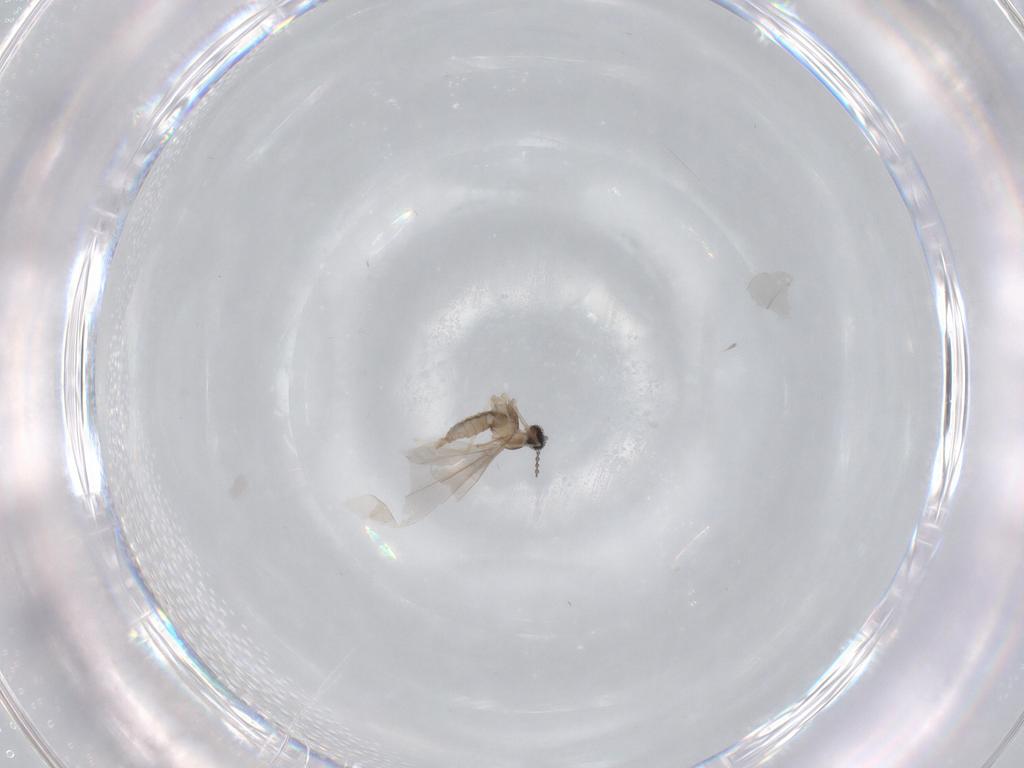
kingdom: Animalia
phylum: Arthropoda
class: Insecta
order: Diptera
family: Cecidomyiidae
